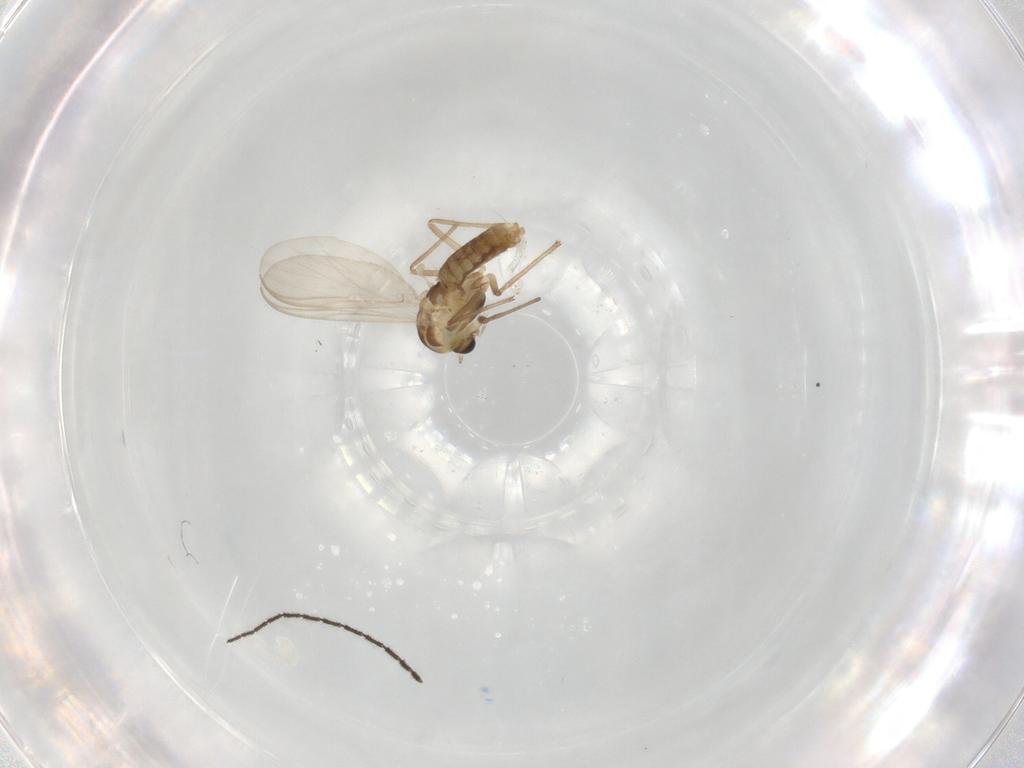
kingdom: Animalia
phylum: Arthropoda
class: Insecta
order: Diptera
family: Chironomidae
